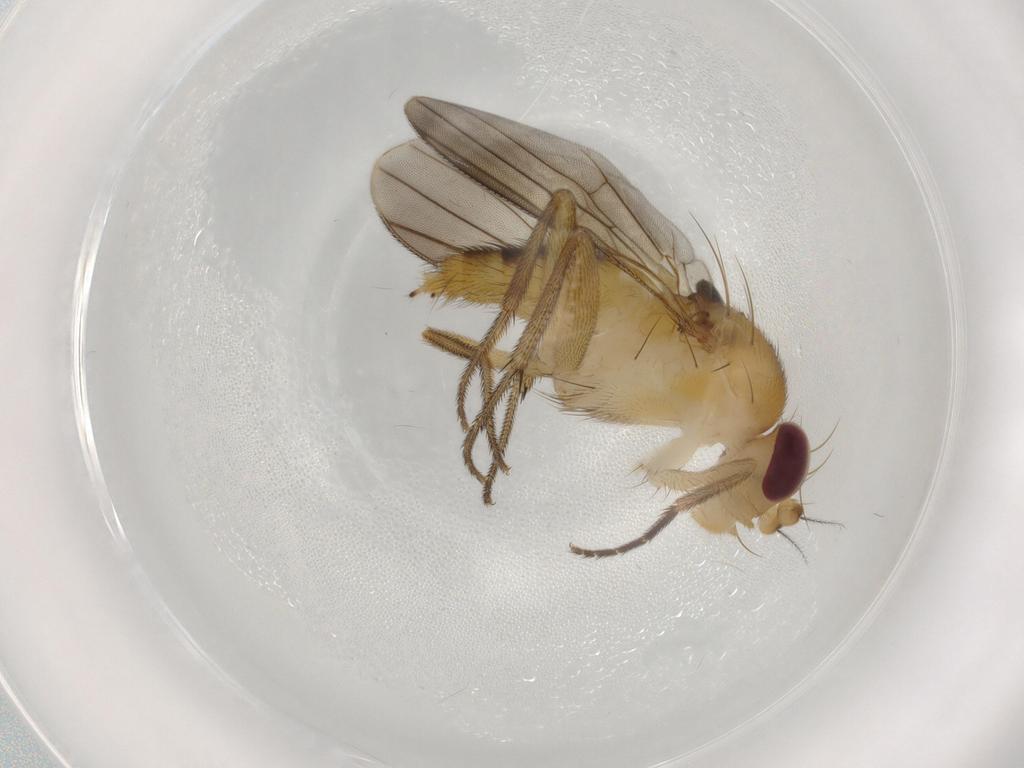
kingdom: Animalia
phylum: Arthropoda
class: Insecta
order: Diptera
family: Clusiidae
